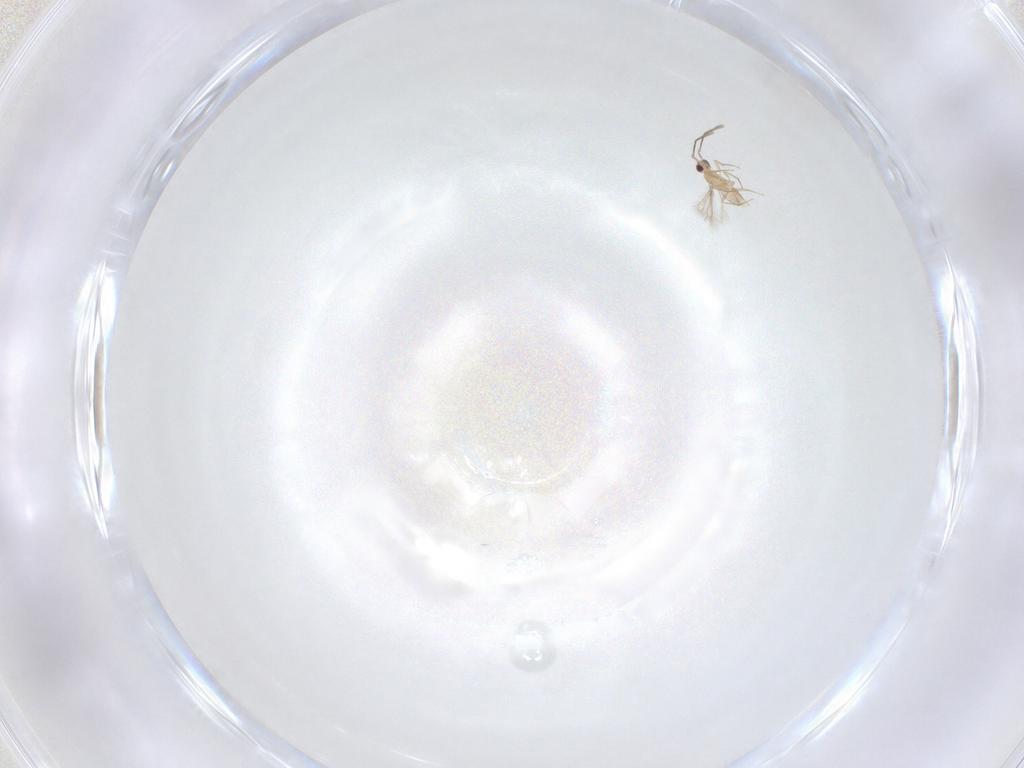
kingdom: Animalia
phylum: Arthropoda
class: Insecta
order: Hymenoptera
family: Mymaridae
